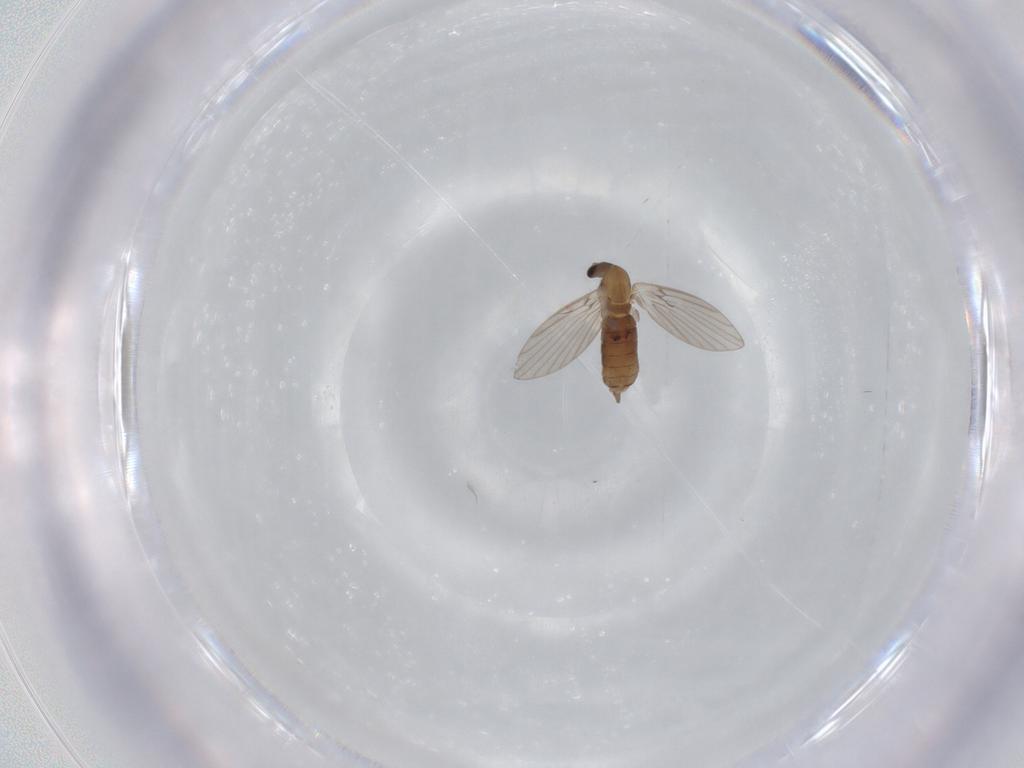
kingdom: Animalia
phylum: Arthropoda
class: Insecta
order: Diptera
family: Psychodidae
